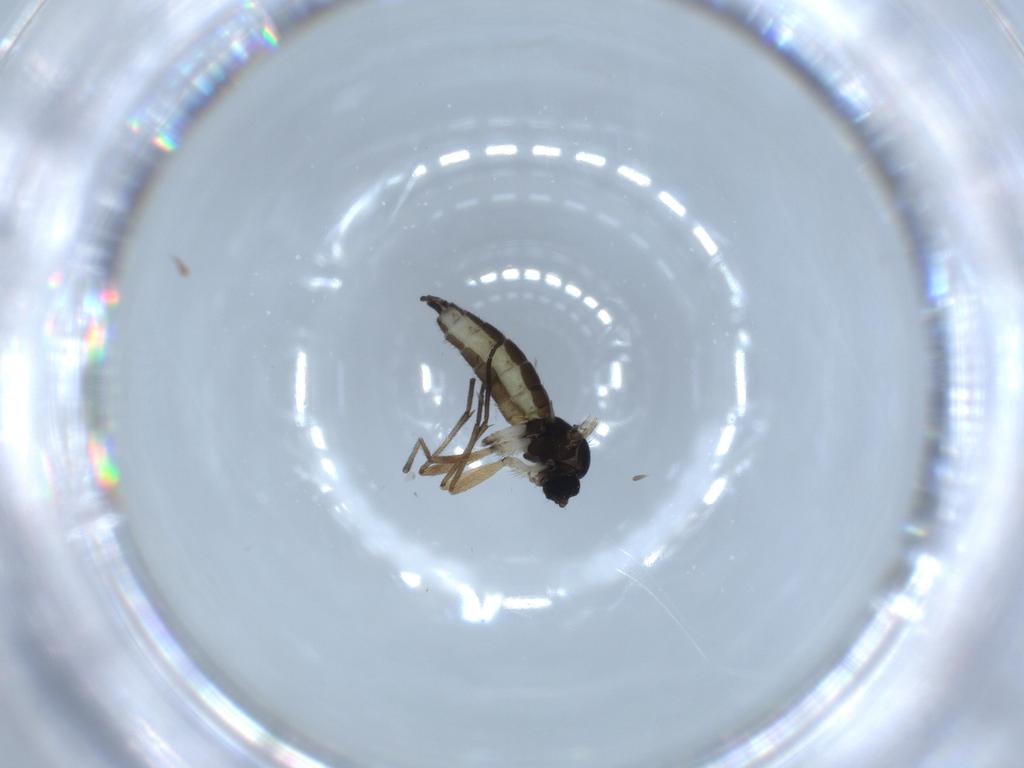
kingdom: Animalia
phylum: Arthropoda
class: Insecta
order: Diptera
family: Sciaridae
